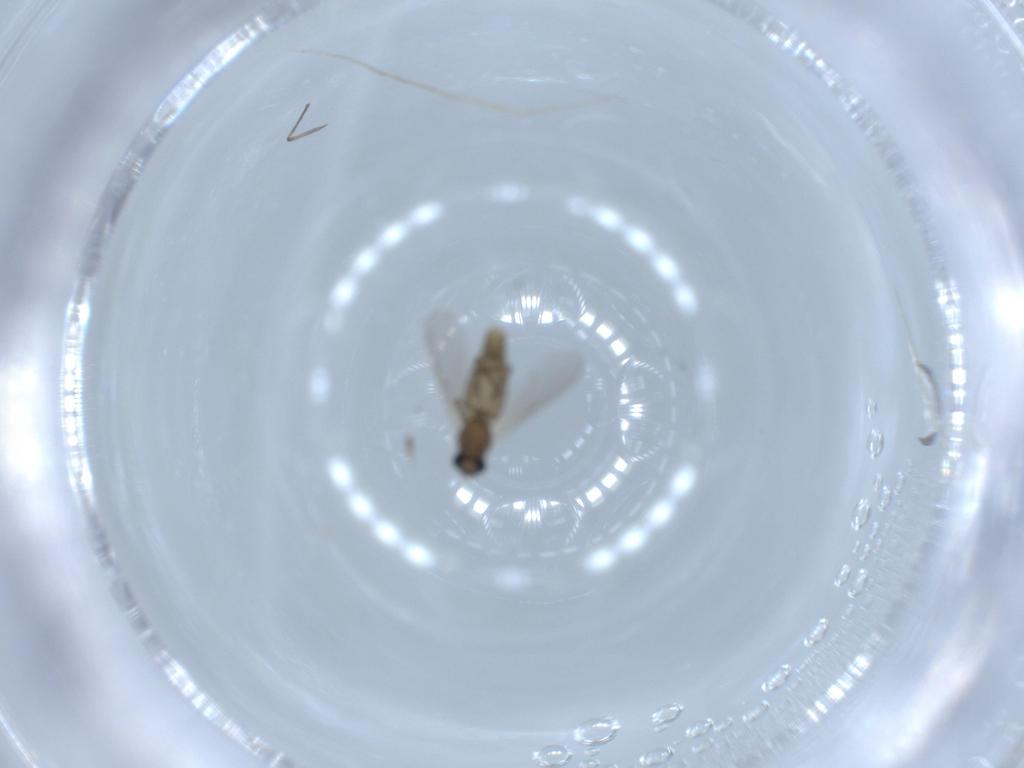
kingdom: Animalia
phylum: Arthropoda
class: Insecta
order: Diptera
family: Chironomidae
